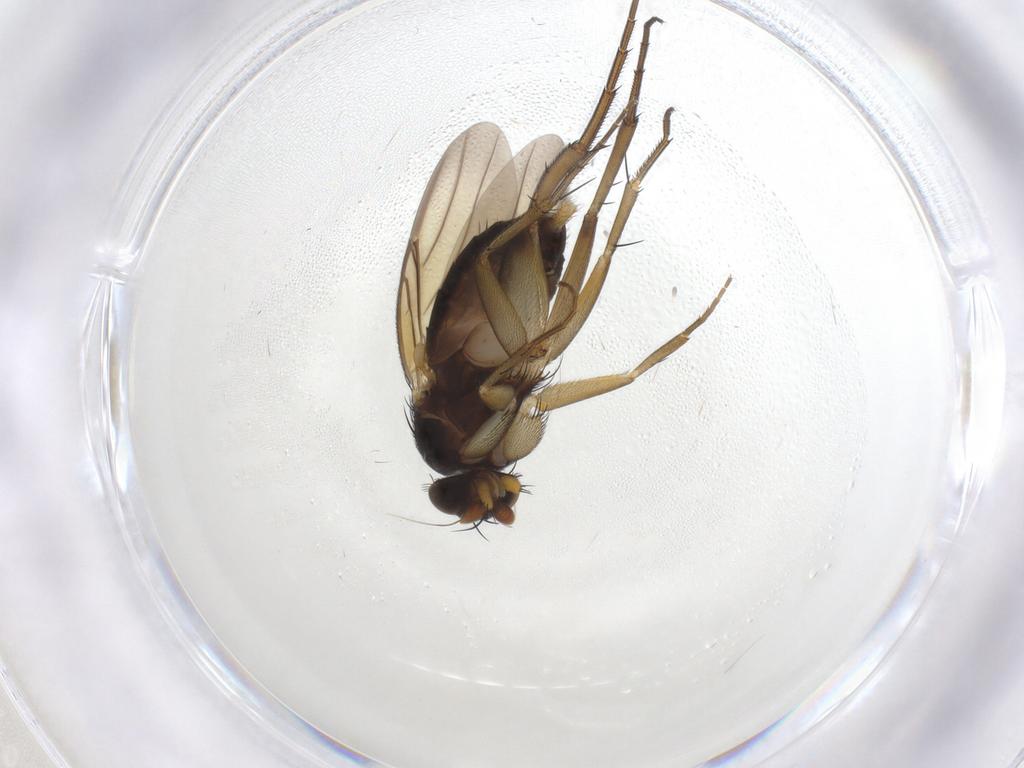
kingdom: Animalia
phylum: Arthropoda
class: Insecta
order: Diptera
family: Phoridae
